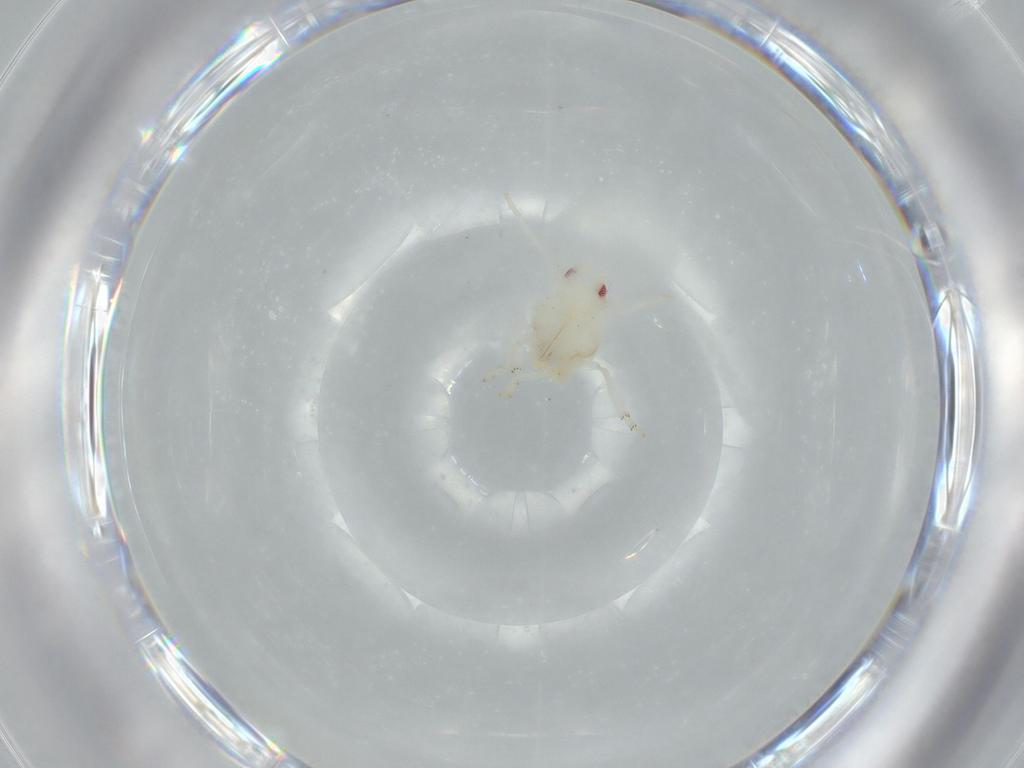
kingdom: Animalia
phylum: Arthropoda
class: Insecta
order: Hemiptera
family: Flatidae
